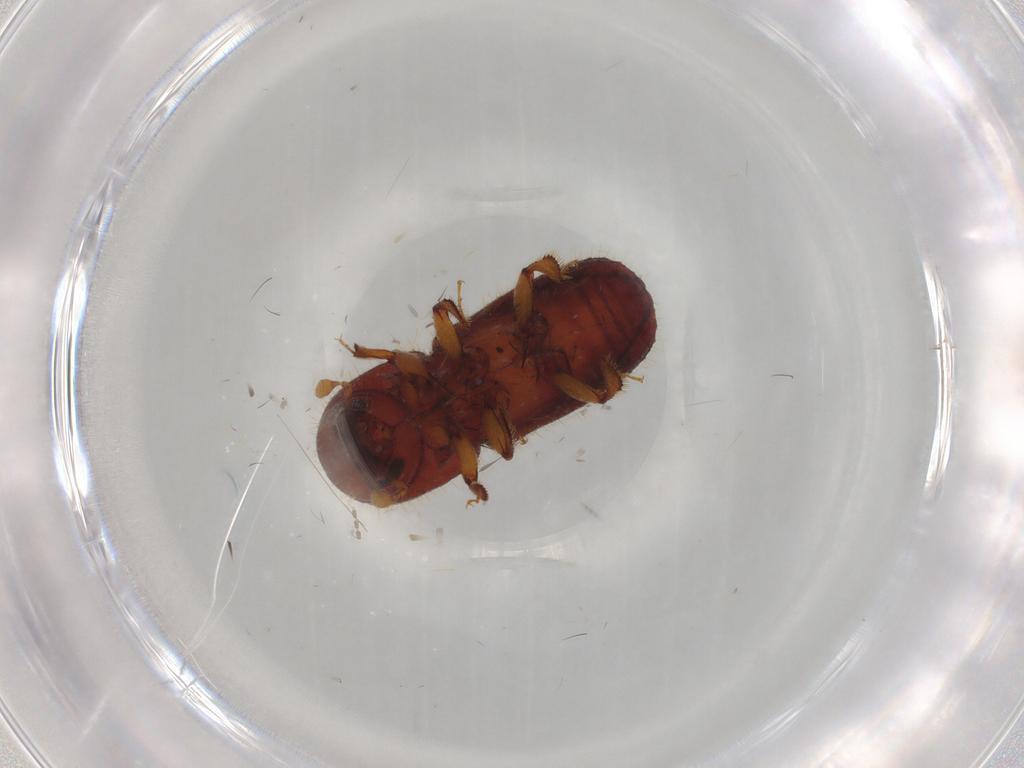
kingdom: Animalia
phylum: Arthropoda
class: Insecta
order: Coleoptera
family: Curculionidae
